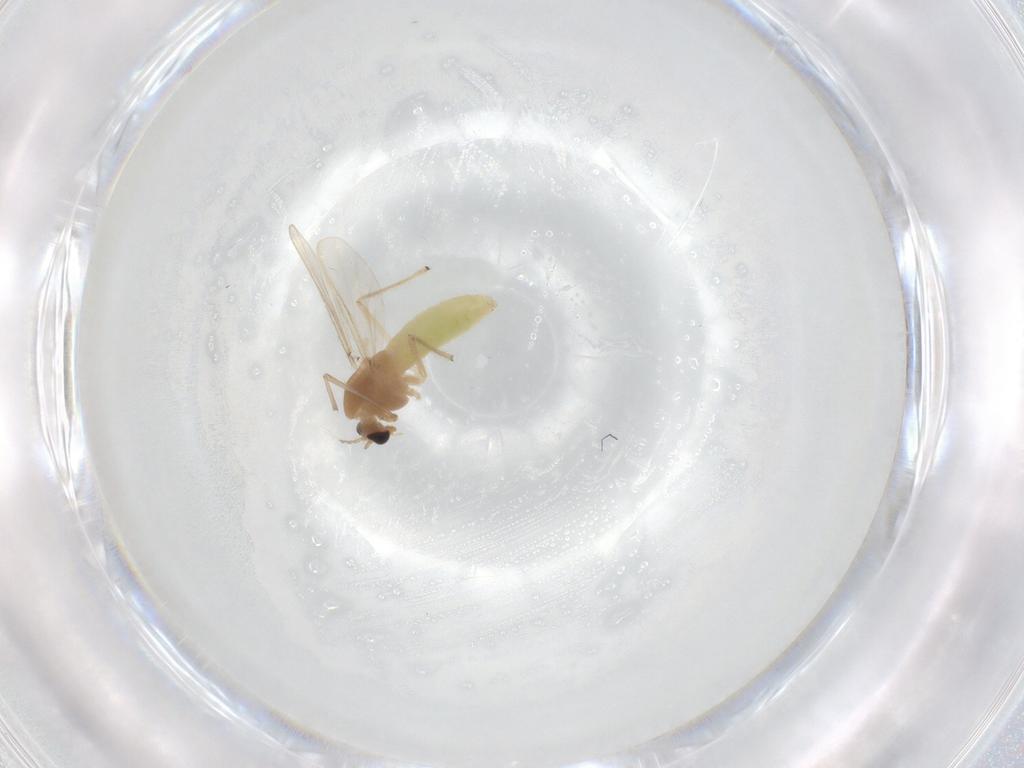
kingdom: Animalia
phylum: Arthropoda
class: Insecta
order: Diptera
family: Chironomidae
